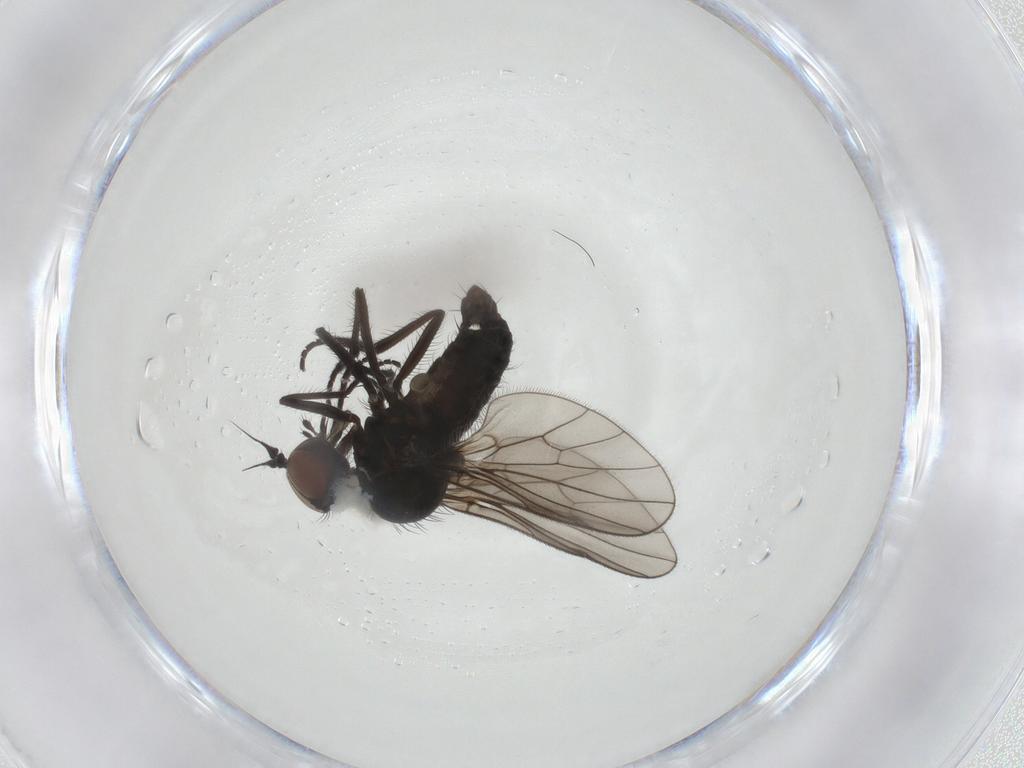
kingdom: Animalia
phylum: Arthropoda
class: Insecta
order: Diptera
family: Dolichopodidae
